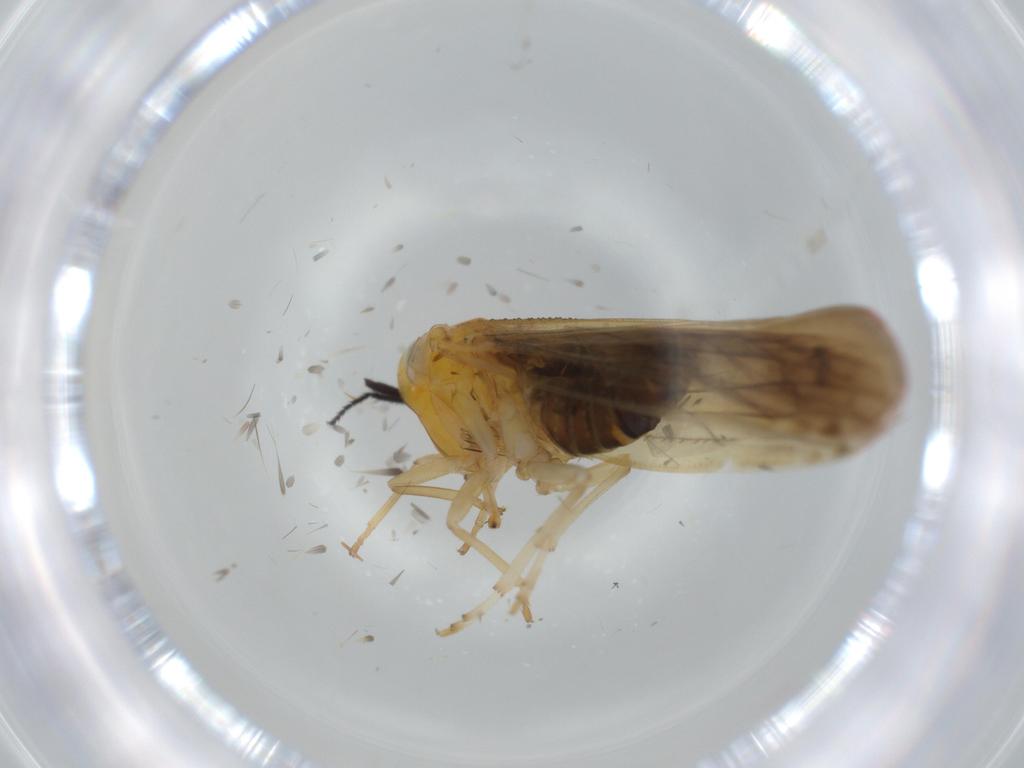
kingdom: Animalia
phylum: Arthropoda
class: Insecta
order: Hemiptera
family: Derbidae
